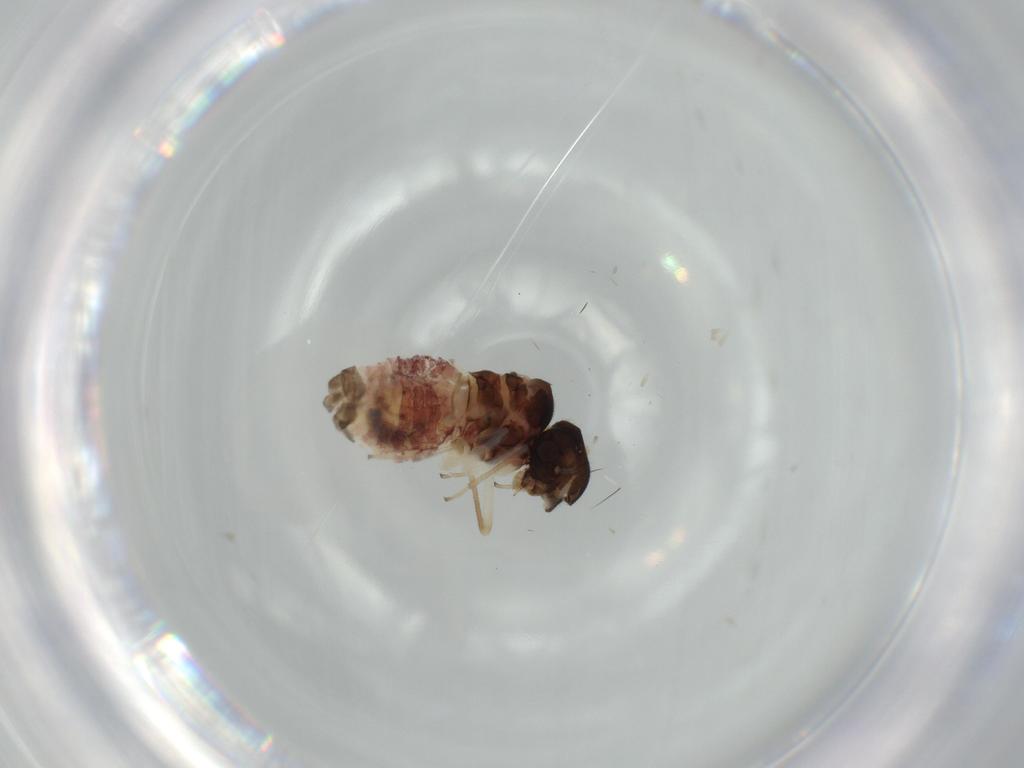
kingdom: Animalia
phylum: Arthropoda
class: Insecta
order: Psocodea
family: Caeciliusidae
